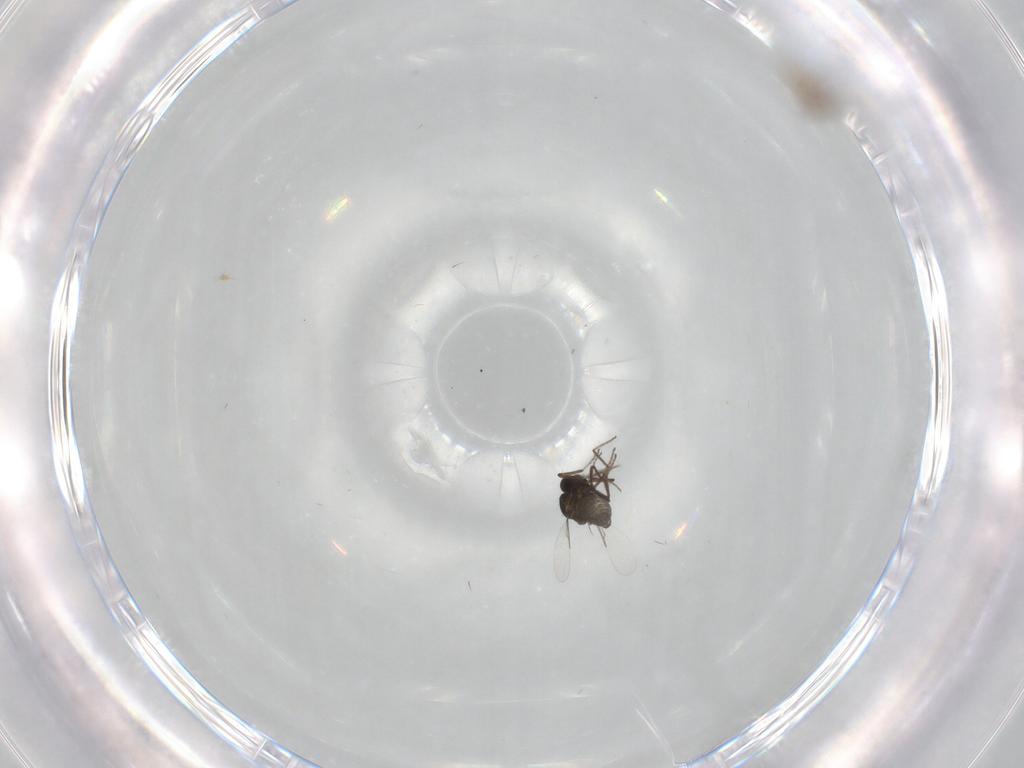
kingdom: Animalia
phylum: Arthropoda
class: Insecta
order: Diptera
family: Ceratopogonidae
